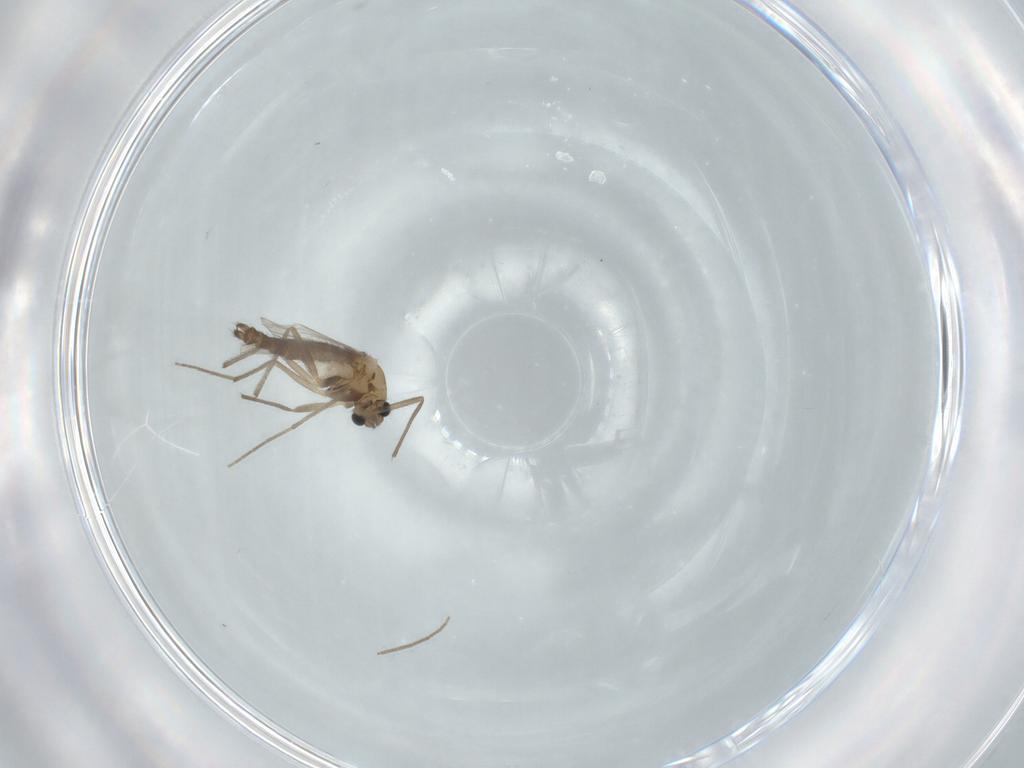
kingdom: Animalia
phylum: Arthropoda
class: Insecta
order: Diptera
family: Chironomidae
